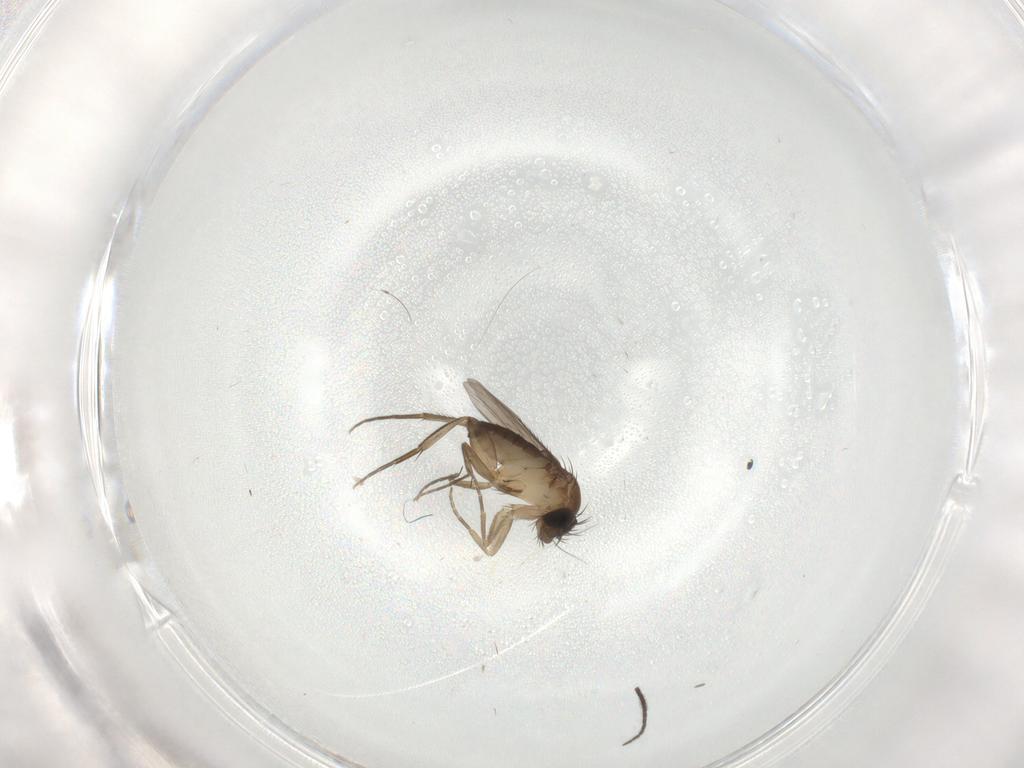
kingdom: Animalia
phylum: Arthropoda
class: Insecta
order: Diptera
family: Phoridae
